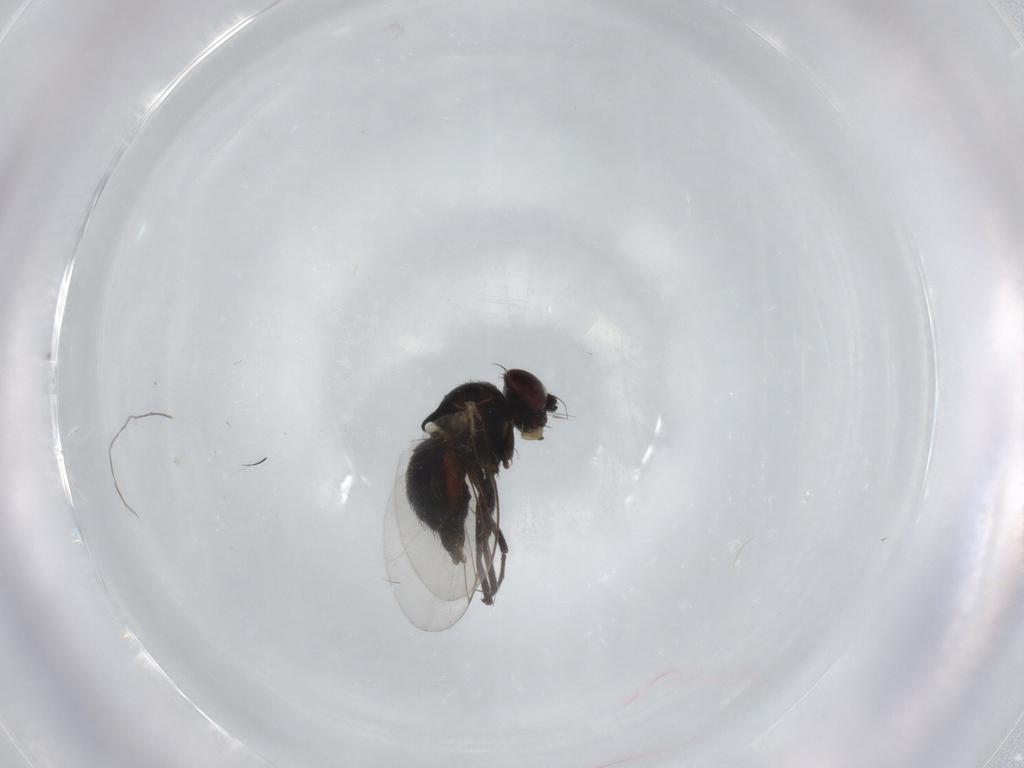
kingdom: Animalia
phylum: Arthropoda
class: Insecta
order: Diptera
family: Agromyzidae
